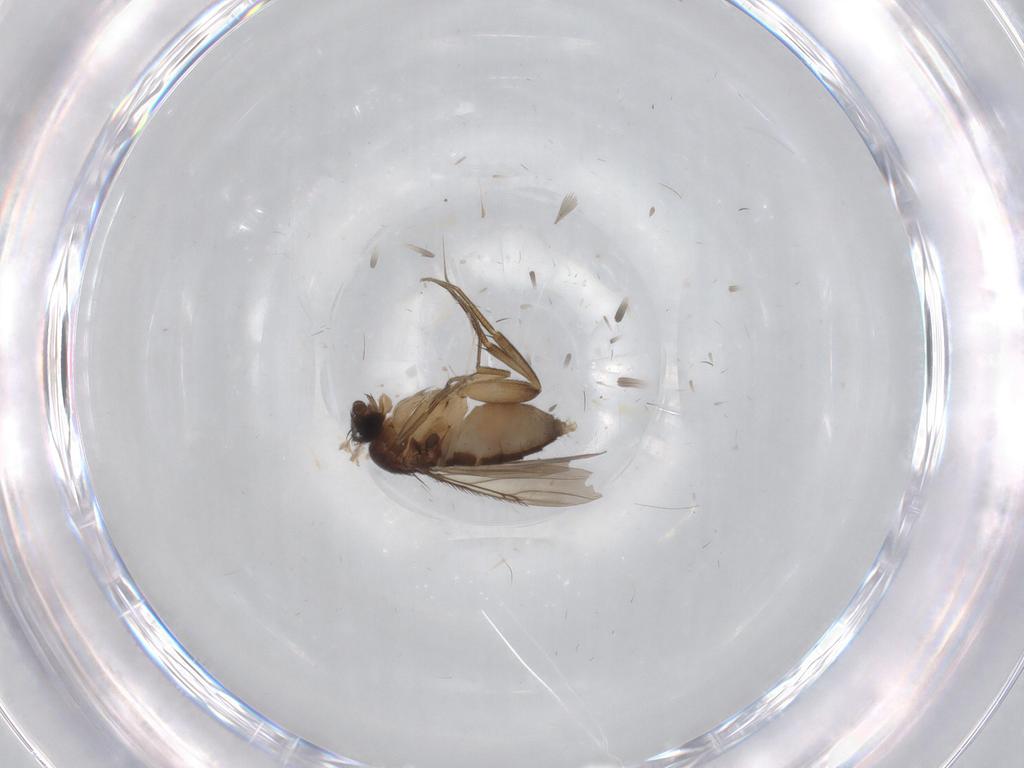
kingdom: Animalia
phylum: Arthropoda
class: Insecta
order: Diptera
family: Phoridae
